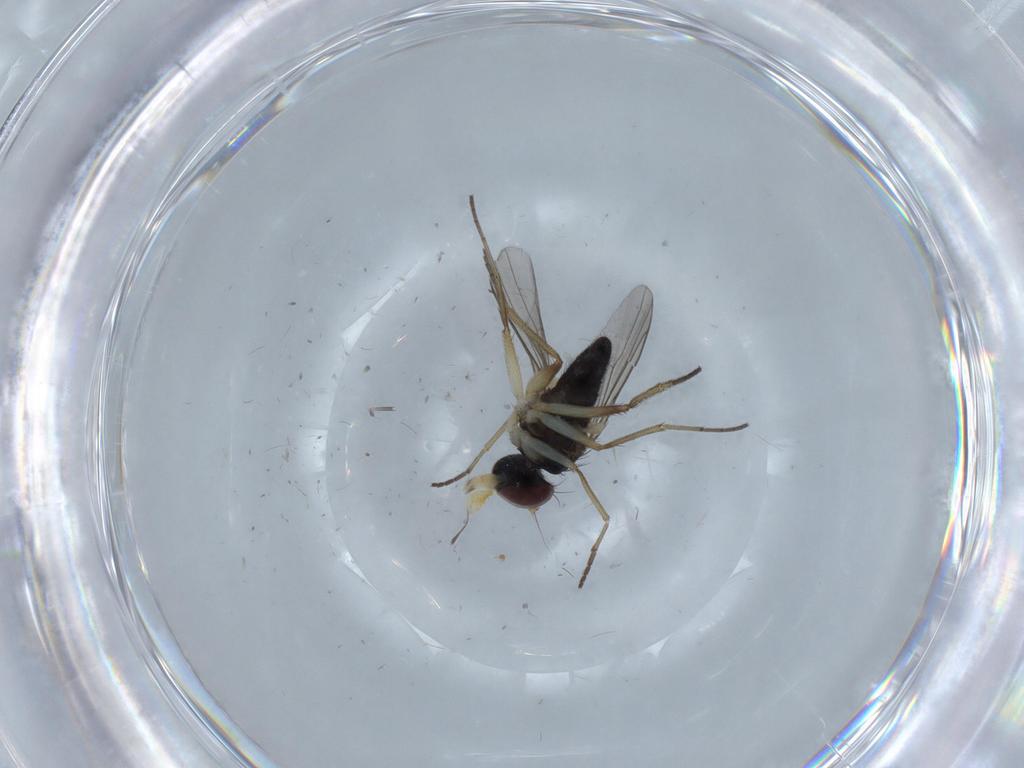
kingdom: Animalia
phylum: Arthropoda
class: Insecta
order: Diptera
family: Dolichopodidae
